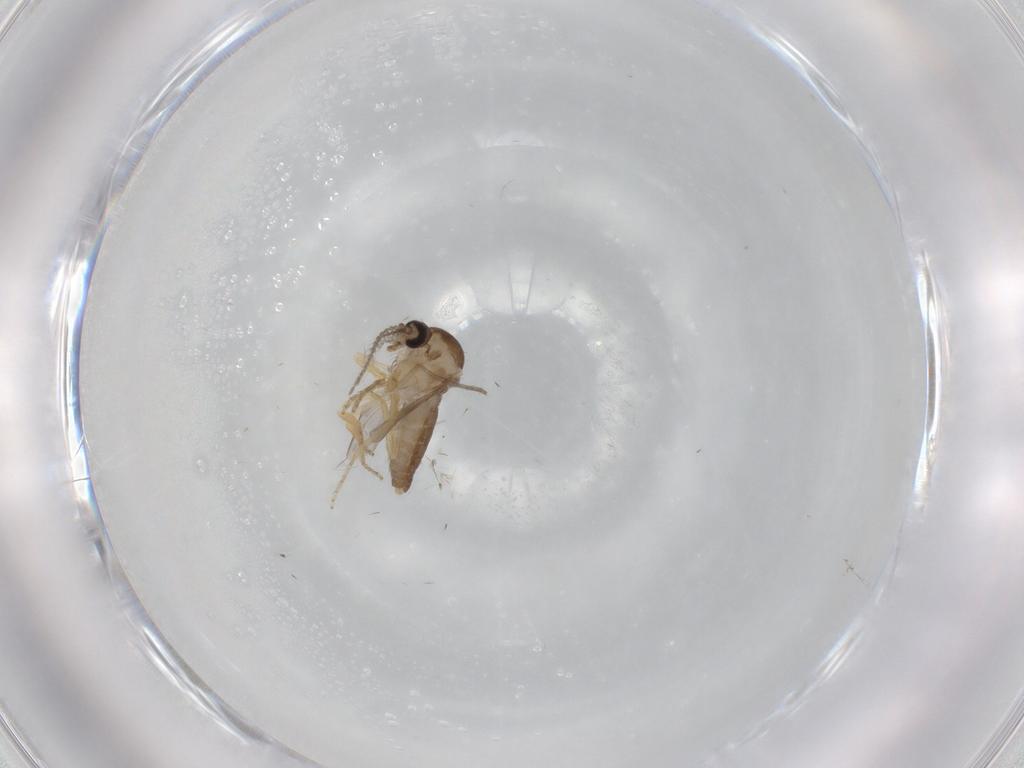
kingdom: Animalia
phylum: Arthropoda
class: Insecta
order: Diptera
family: Ceratopogonidae
